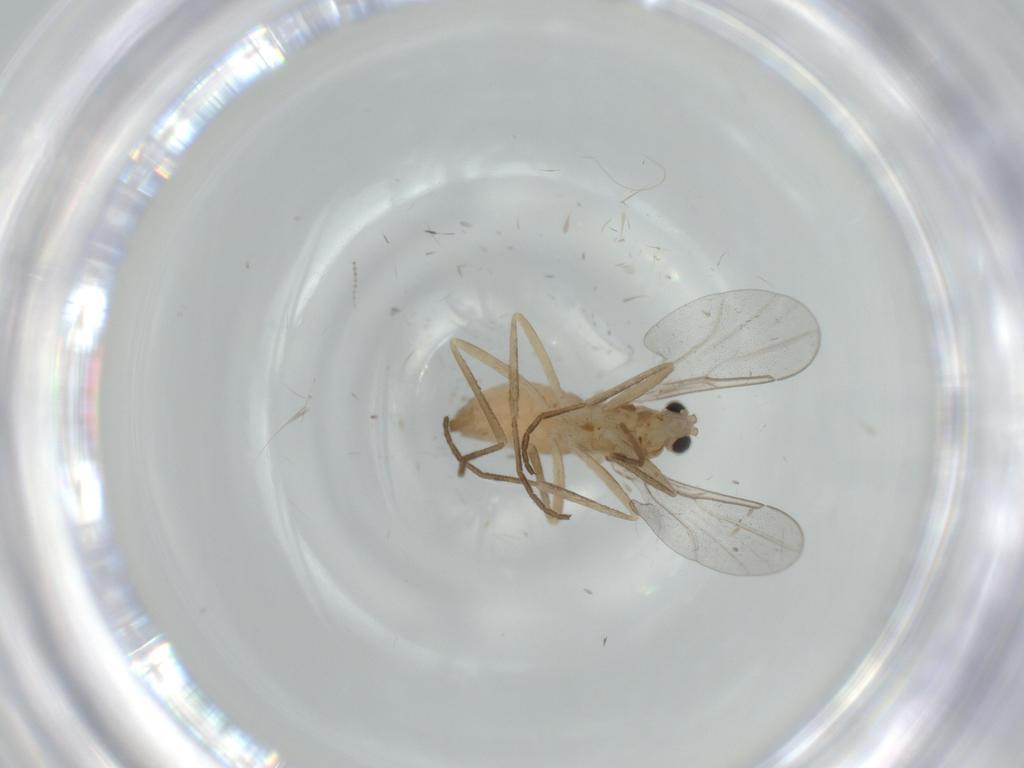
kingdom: Animalia
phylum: Arthropoda
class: Insecta
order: Diptera
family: Cecidomyiidae
